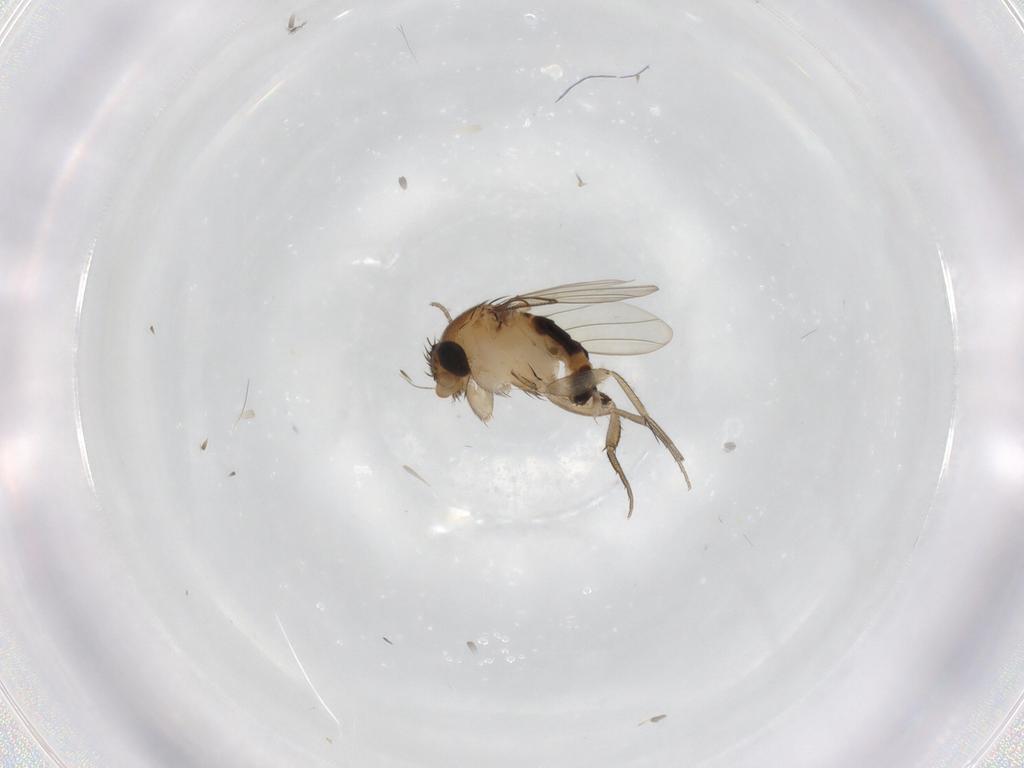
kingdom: Animalia
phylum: Arthropoda
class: Insecta
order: Diptera
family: Phoridae
